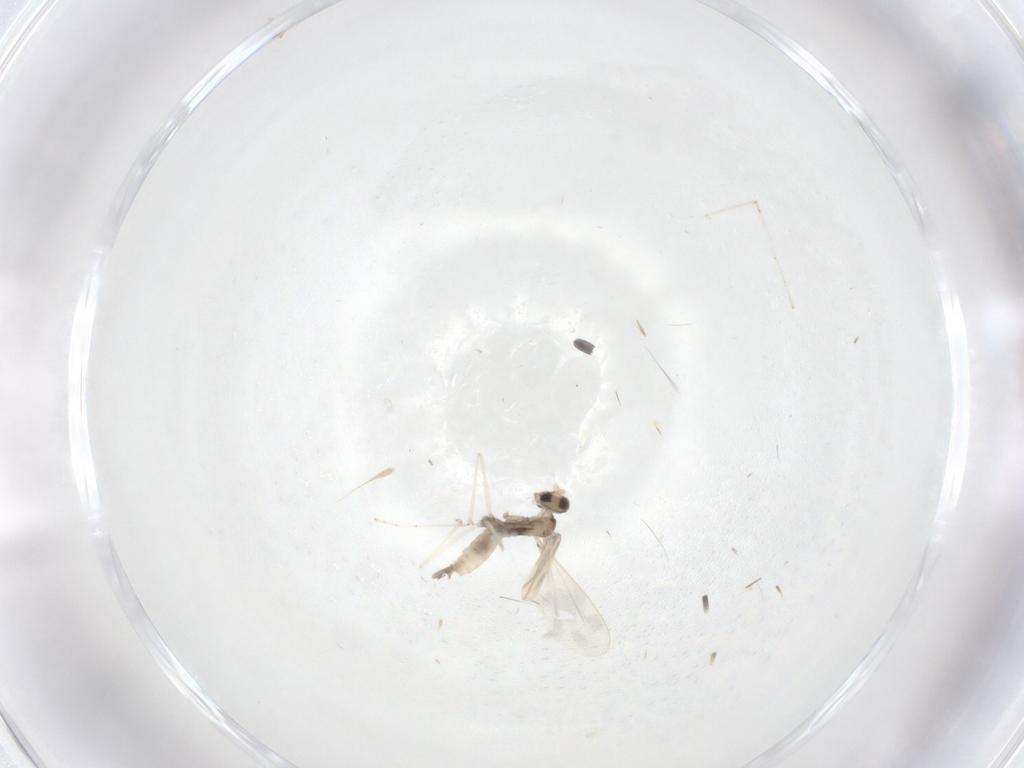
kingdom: Animalia
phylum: Arthropoda
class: Insecta
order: Diptera
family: Cecidomyiidae
